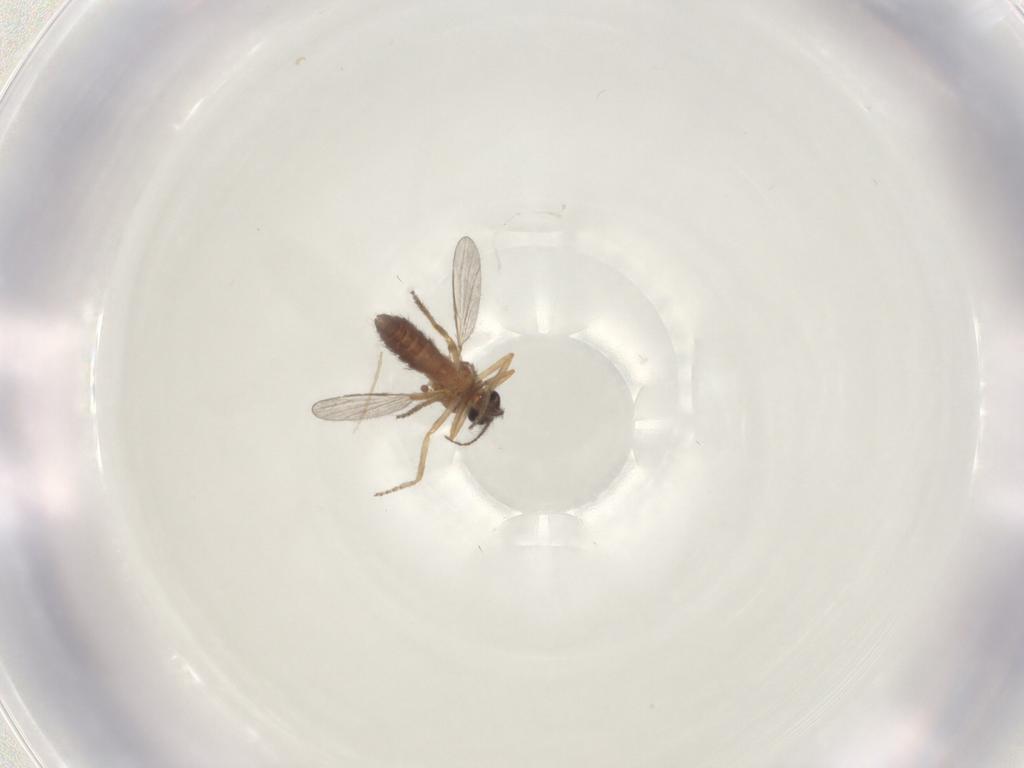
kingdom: Animalia
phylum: Arthropoda
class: Insecta
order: Diptera
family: Ceratopogonidae
